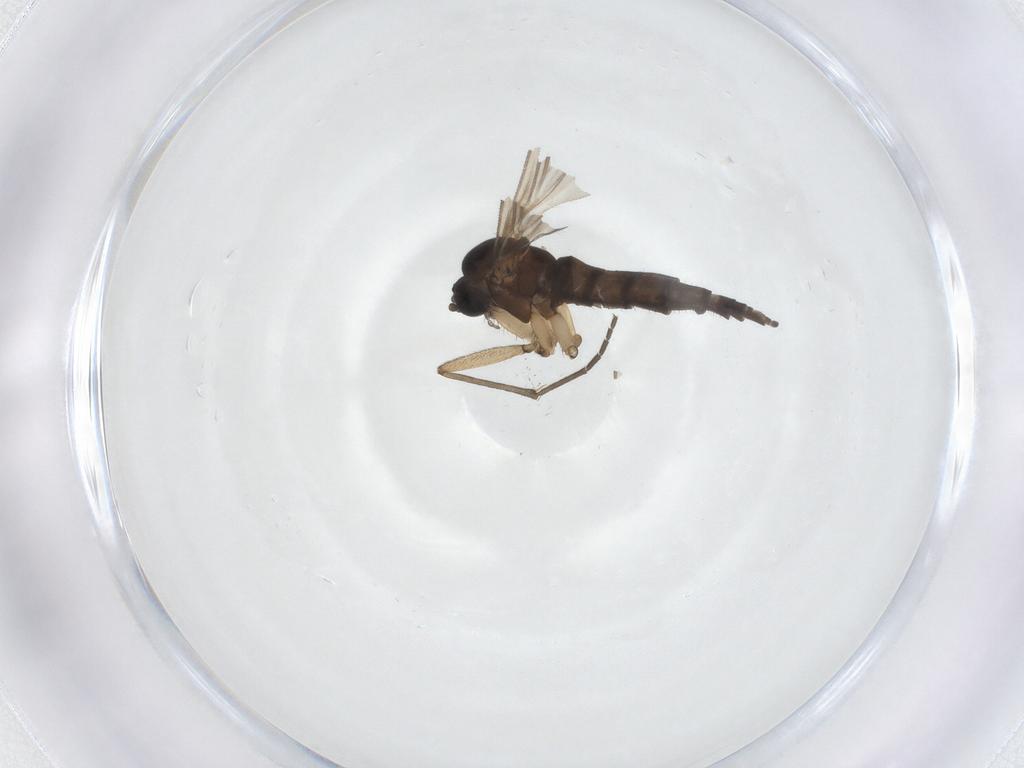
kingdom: Animalia
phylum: Arthropoda
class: Insecta
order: Diptera
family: Sciaridae
